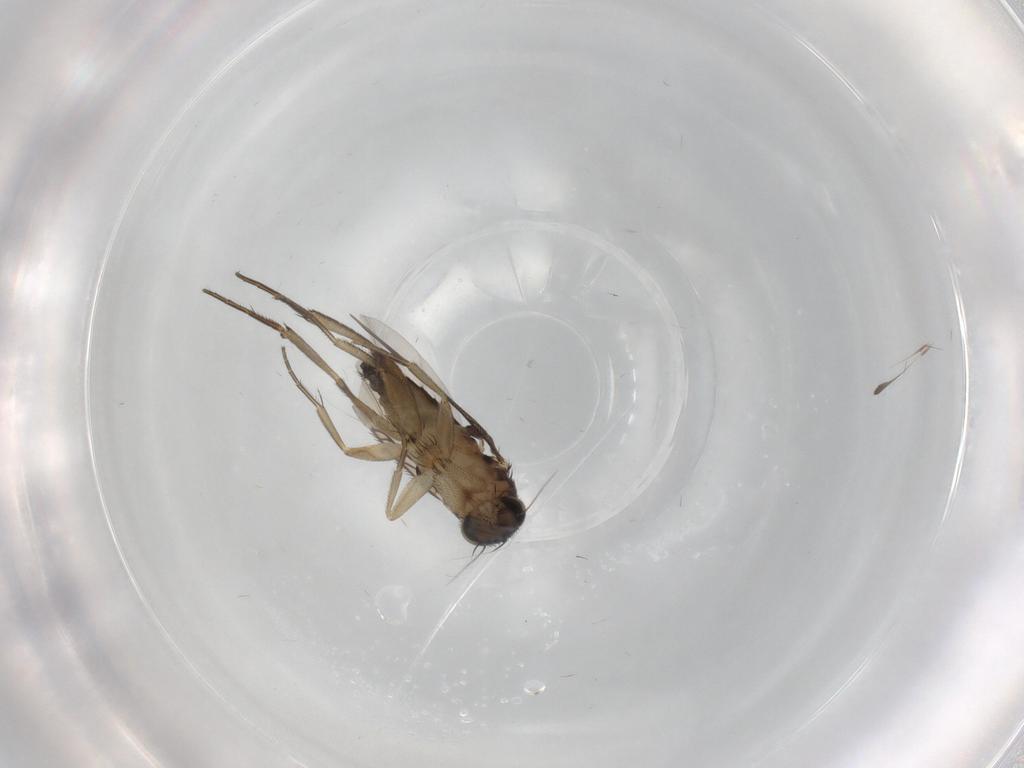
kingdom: Animalia
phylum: Arthropoda
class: Insecta
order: Diptera
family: Phoridae
